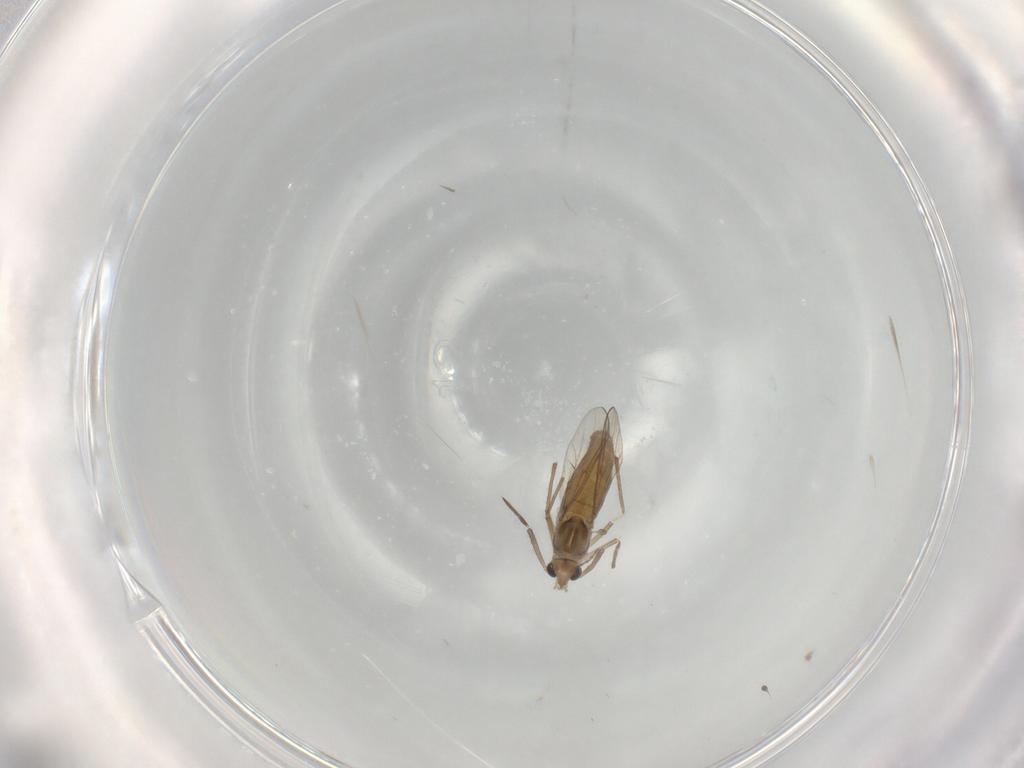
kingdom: Animalia
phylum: Arthropoda
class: Insecta
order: Diptera
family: Chironomidae
